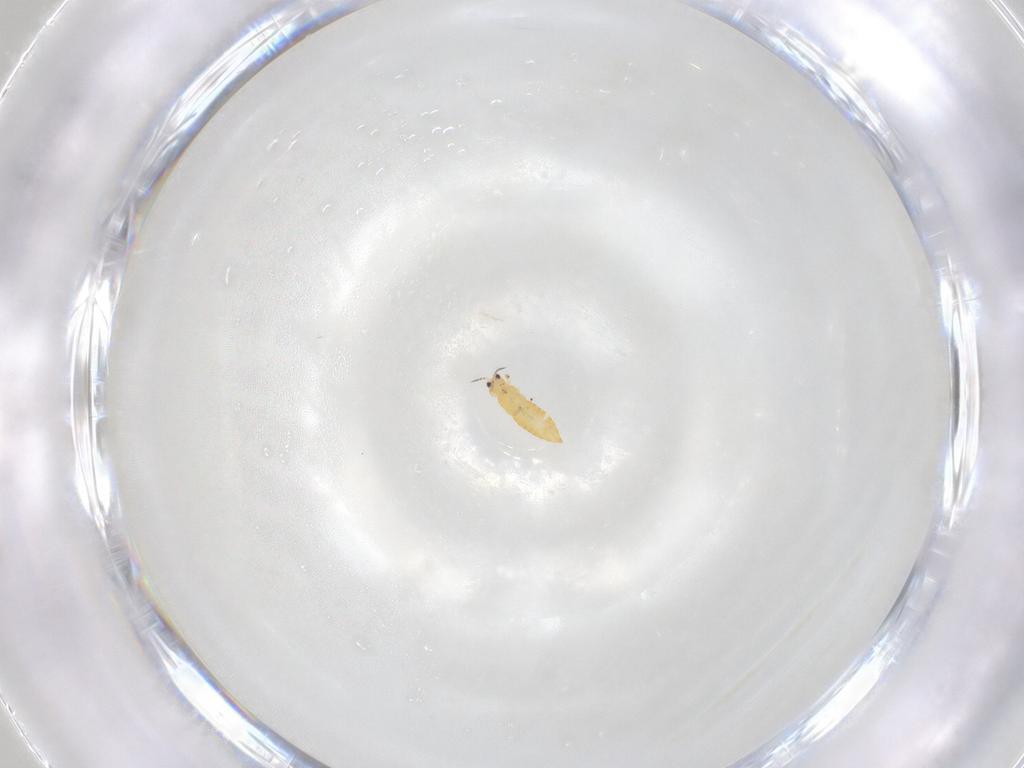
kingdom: Animalia
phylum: Arthropoda
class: Insecta
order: Thysanoptera
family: Thripidae
